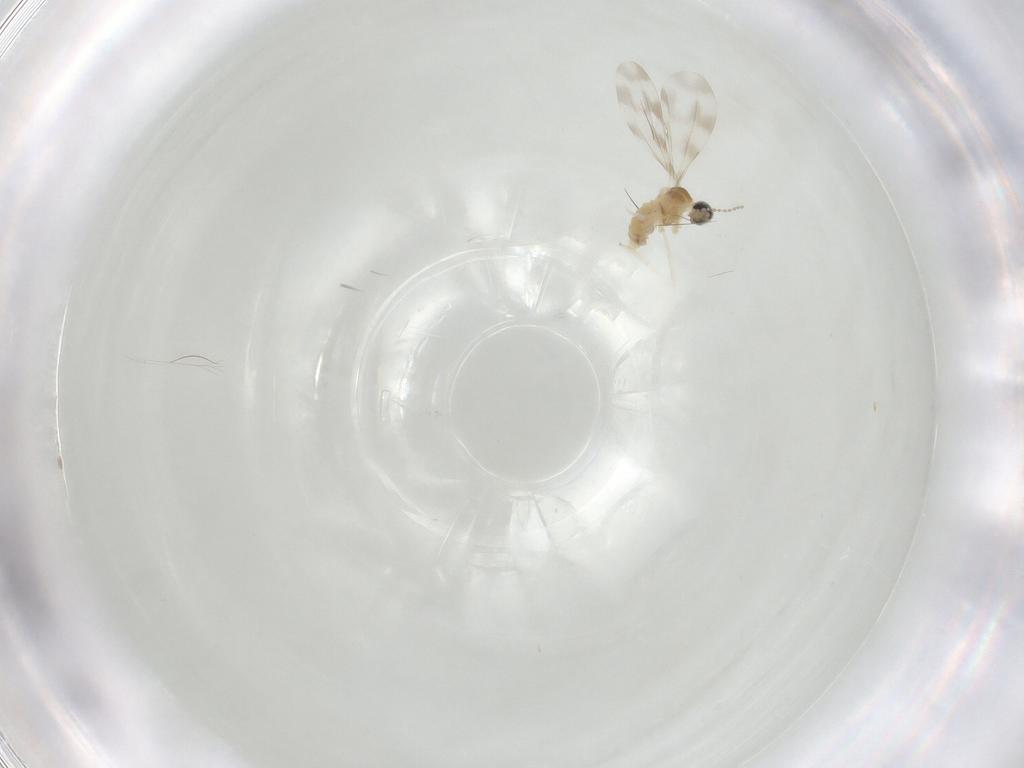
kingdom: Animalia
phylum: Arthropoda
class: Insecta
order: Diptera
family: Cecidomyiidae
